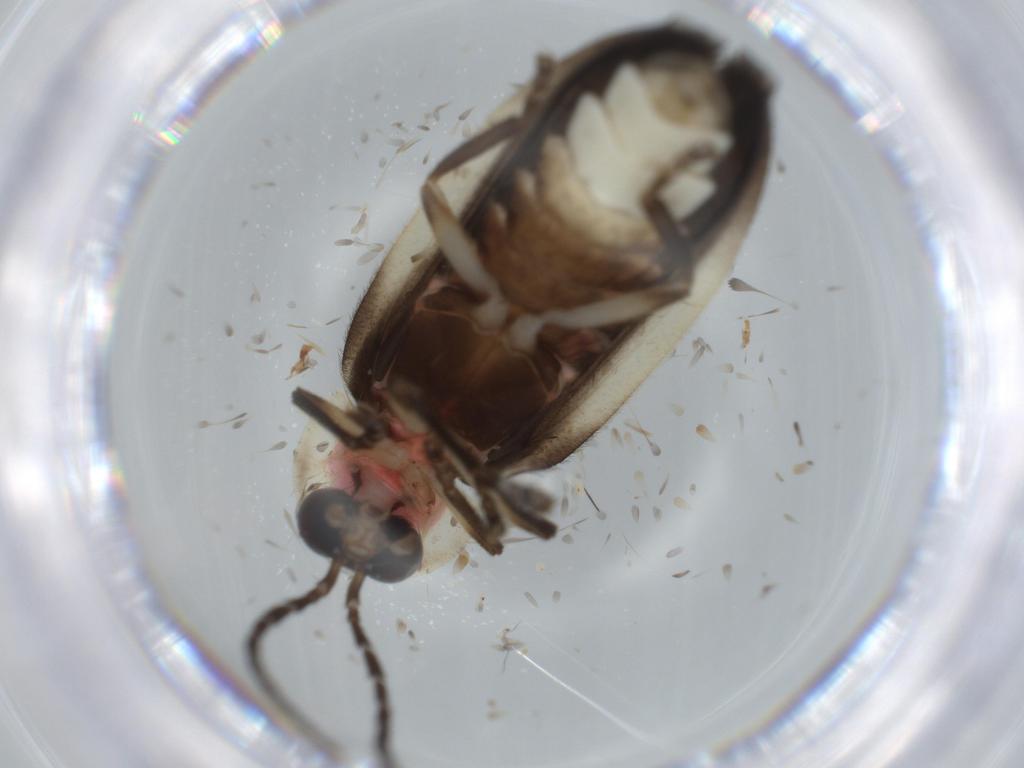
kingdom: Animalia
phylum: Arthropoda
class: Insecta
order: Coleoptera
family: Lampyridae
